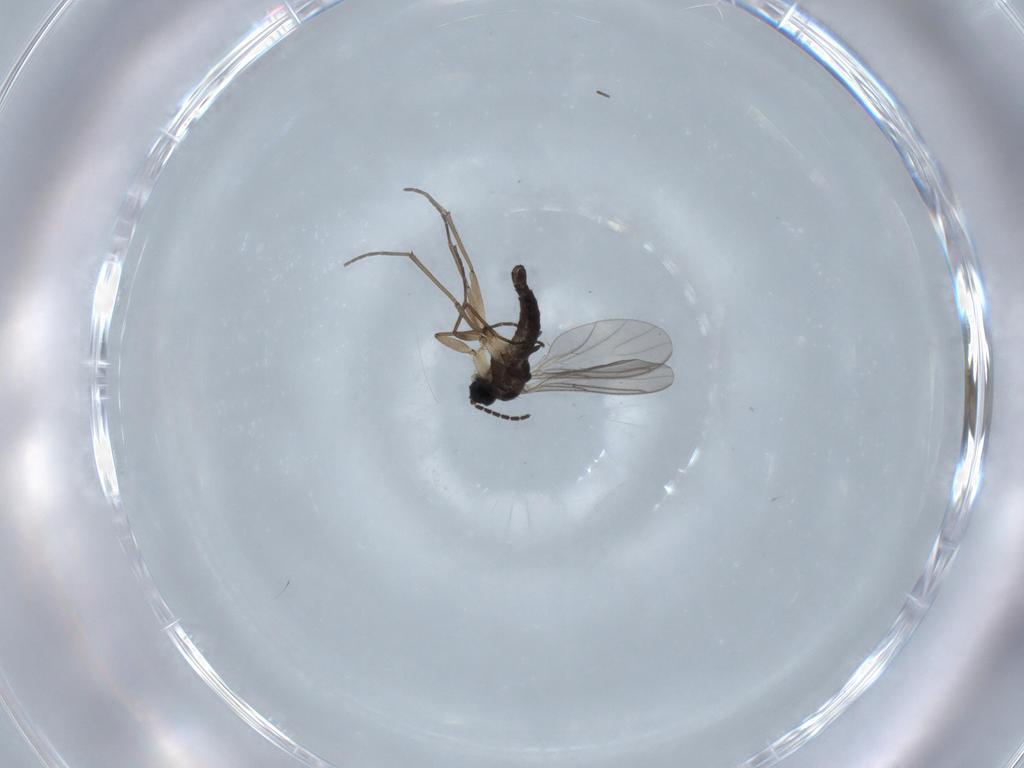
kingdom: Animalia
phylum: Arthropoda
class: Insecta
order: Diptera
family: Sciaridae
